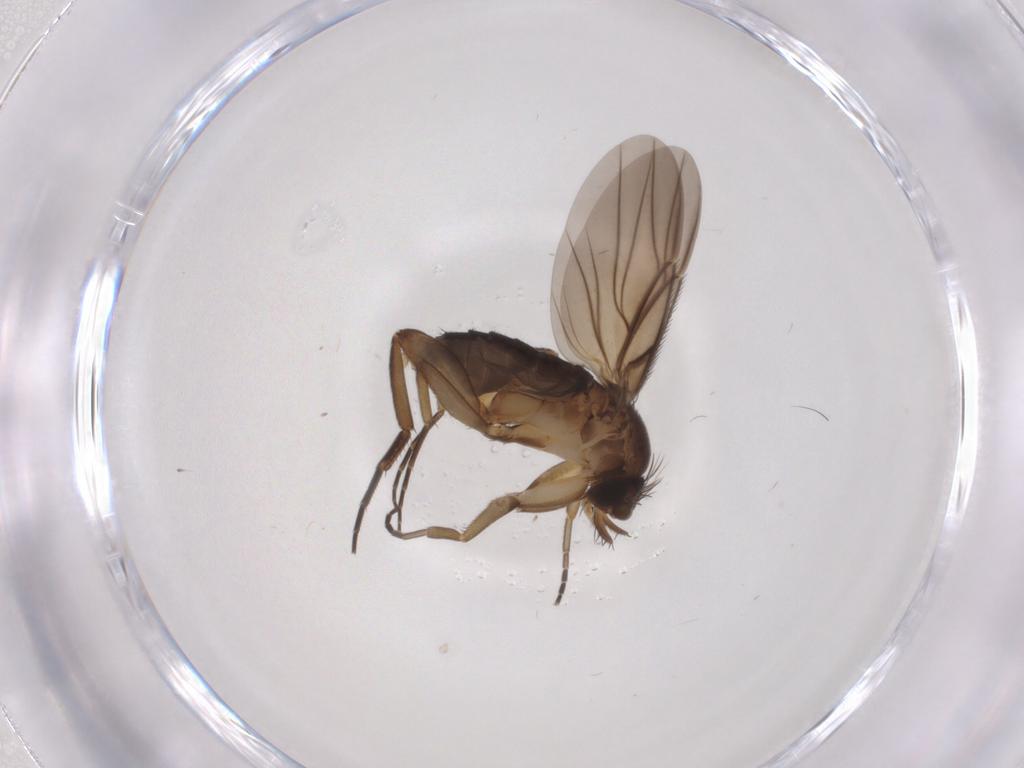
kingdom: Animalia
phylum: Arthropoda
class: Insecta
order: Diptera
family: Phoridae
